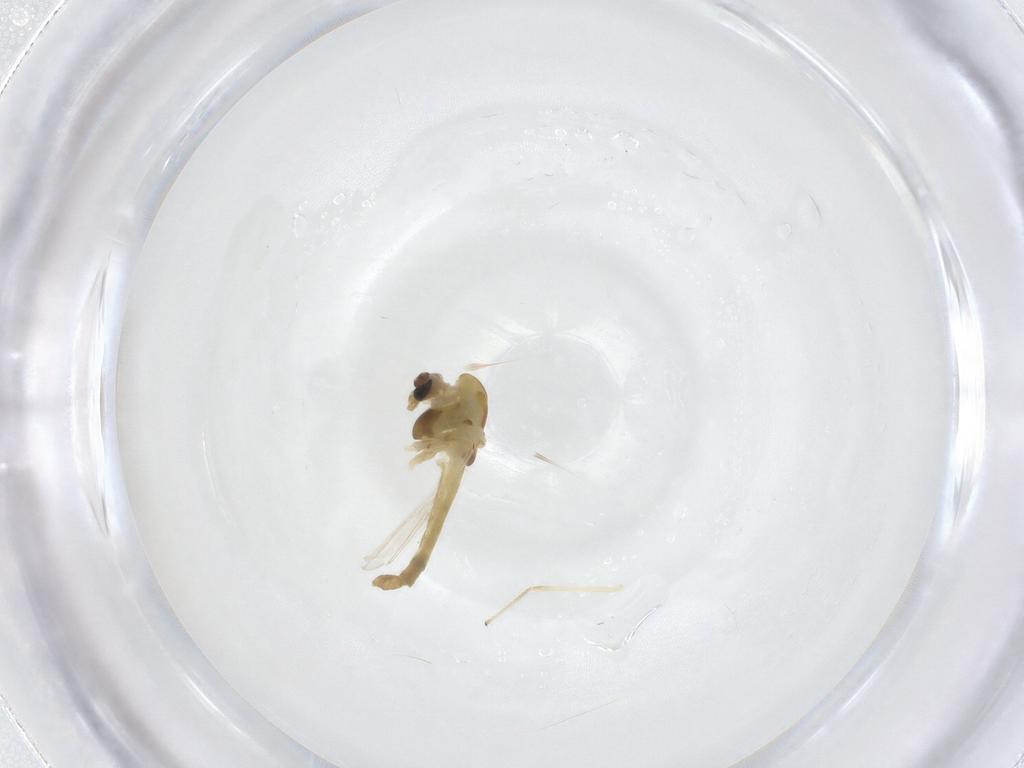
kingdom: Animalia
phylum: Arthropoda
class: Insecta
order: Diptera
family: Chironomidae
